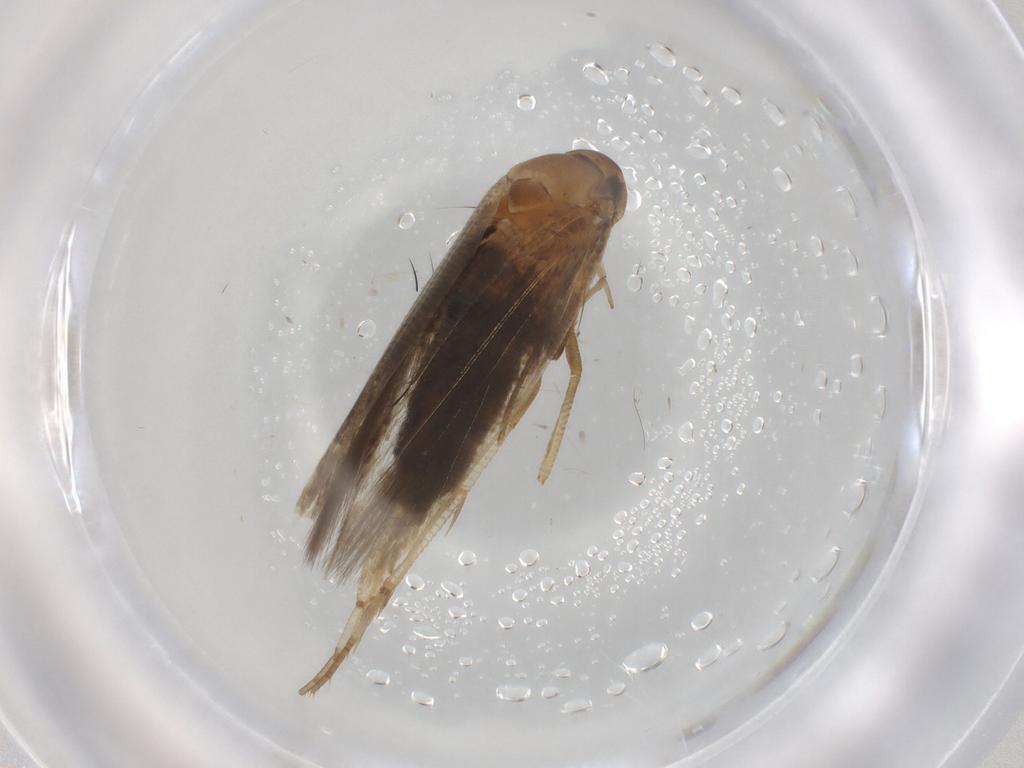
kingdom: Animalia
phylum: Arthropoda
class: Insecta
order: Lepidoptera
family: Cosmopterigidae
